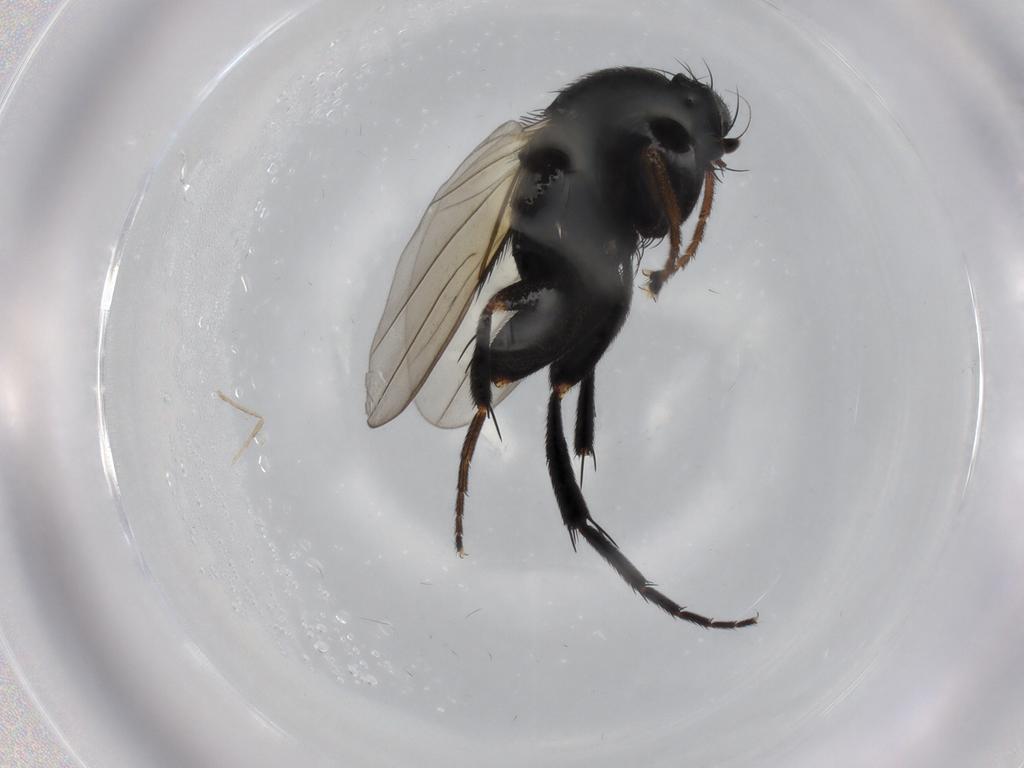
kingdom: Animalia
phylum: Arthropoda
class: Insecta
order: Diptera
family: Phoridae
